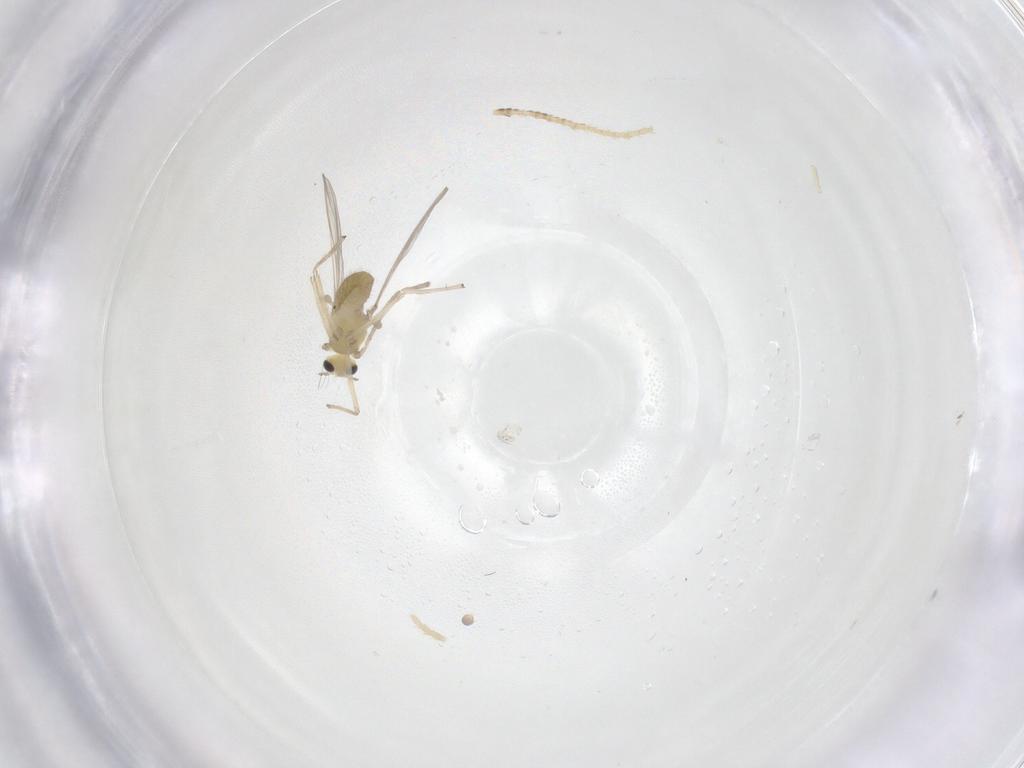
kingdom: Animalia
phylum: Arthropoda
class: Insecta
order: Diptera
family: Chironomidae
